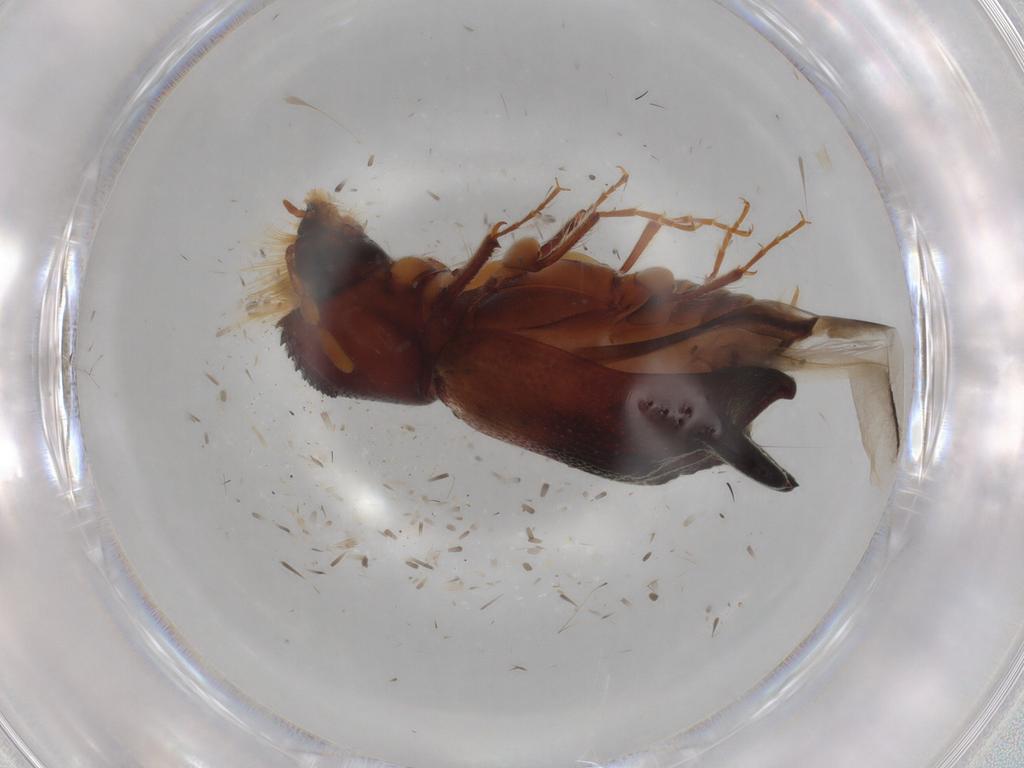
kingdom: Animalia
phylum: Arthropoda
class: Insecta
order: Coleoptera
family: Bostrichidae
